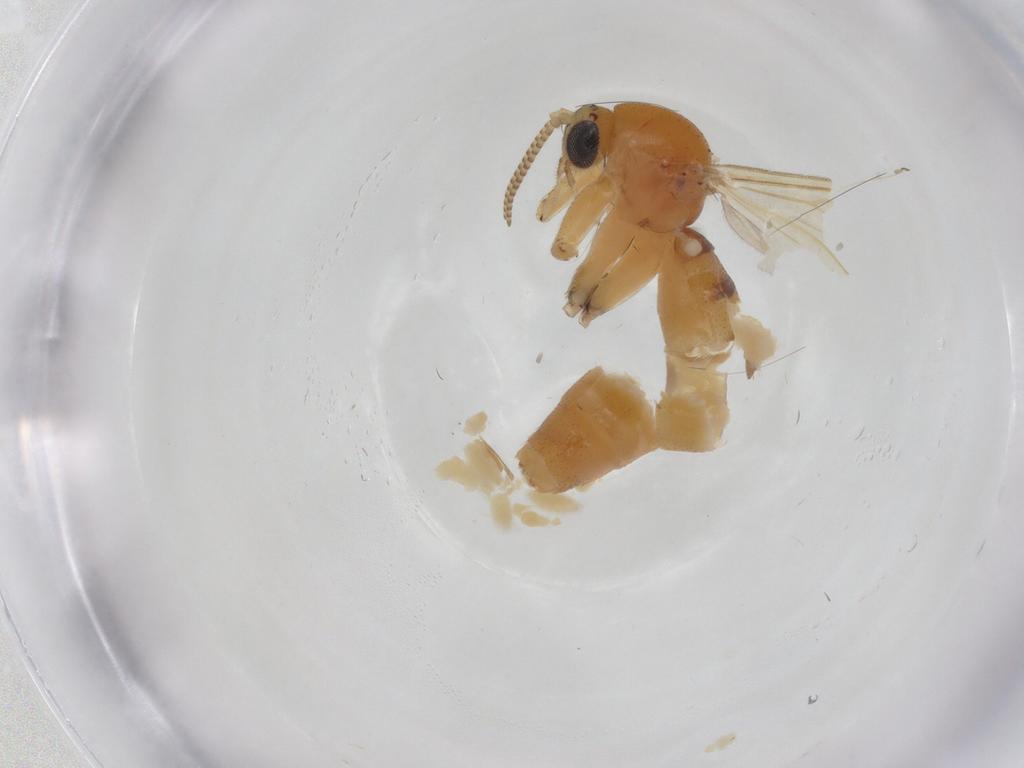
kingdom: Animalia
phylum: Arthropoda
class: Insecta
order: Diptera
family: Mycetophilidae
